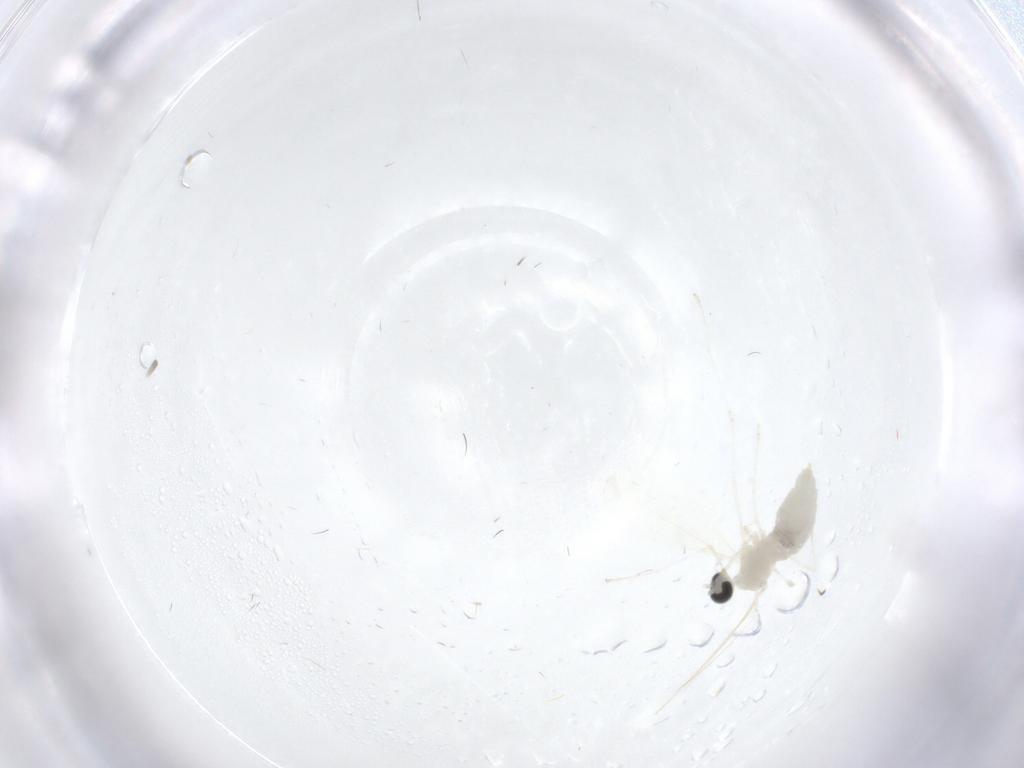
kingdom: Animalia
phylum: Arthropoda
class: Insecta
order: Diptera
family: Psychodidae
